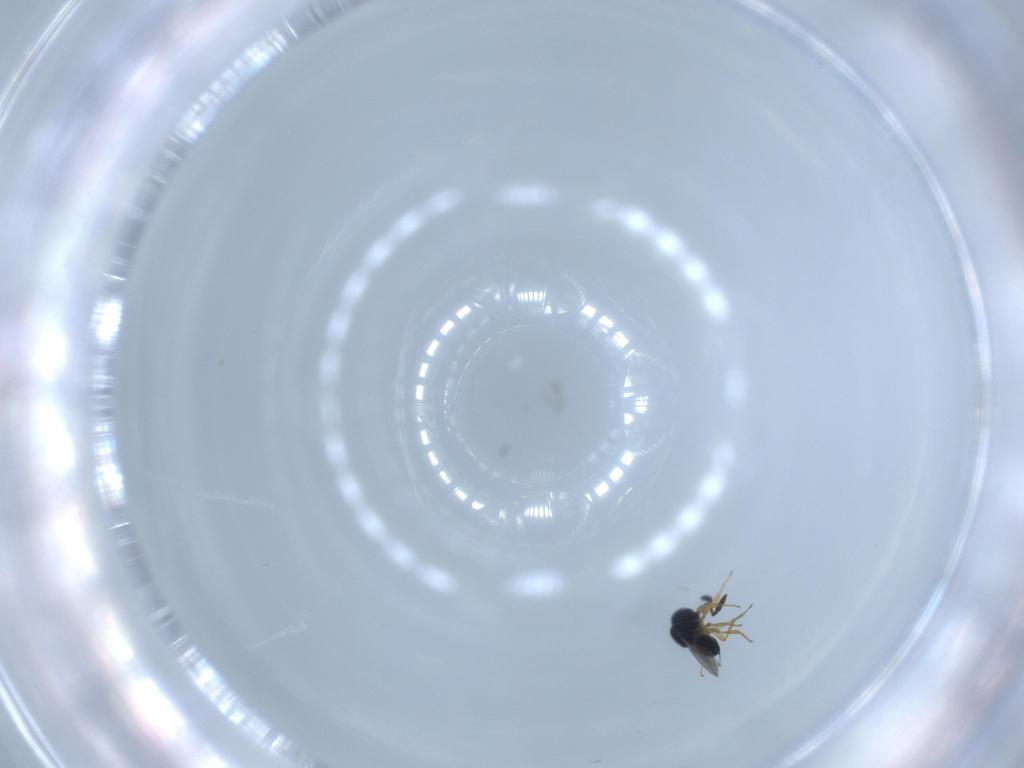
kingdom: Animalia
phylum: Arthropoda
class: Insecta
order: Hymenoptera
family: Scelionidae
